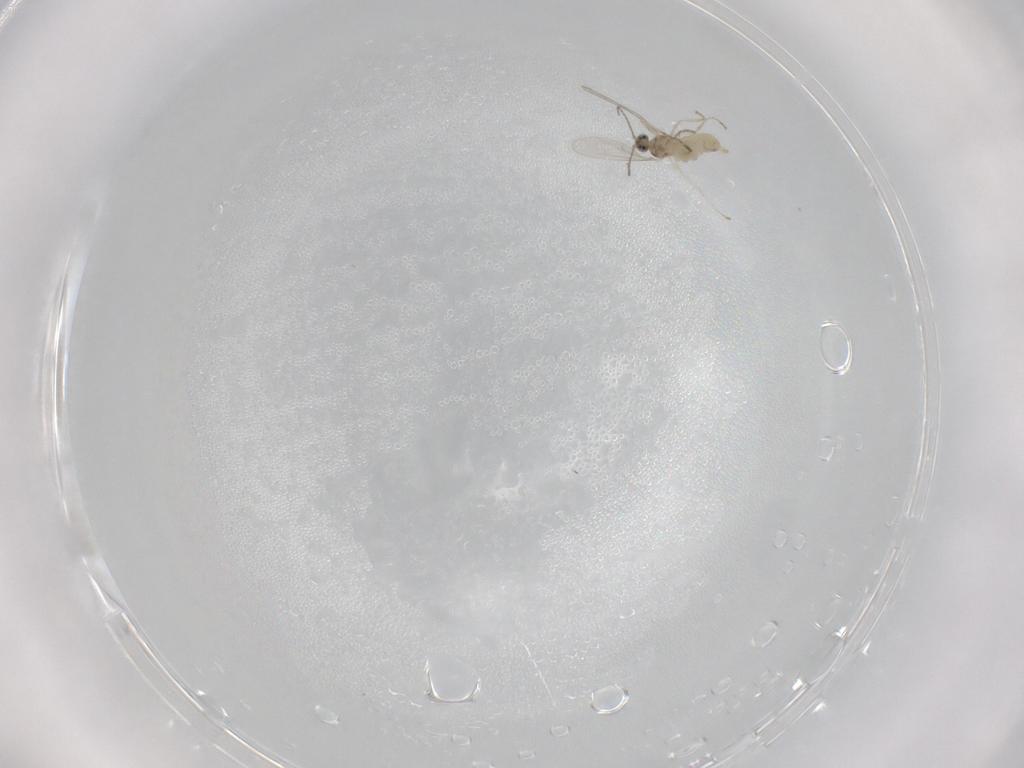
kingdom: Animalia
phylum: Arthropoda
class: Insecta
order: Diptera
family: Cecidomyiidae
